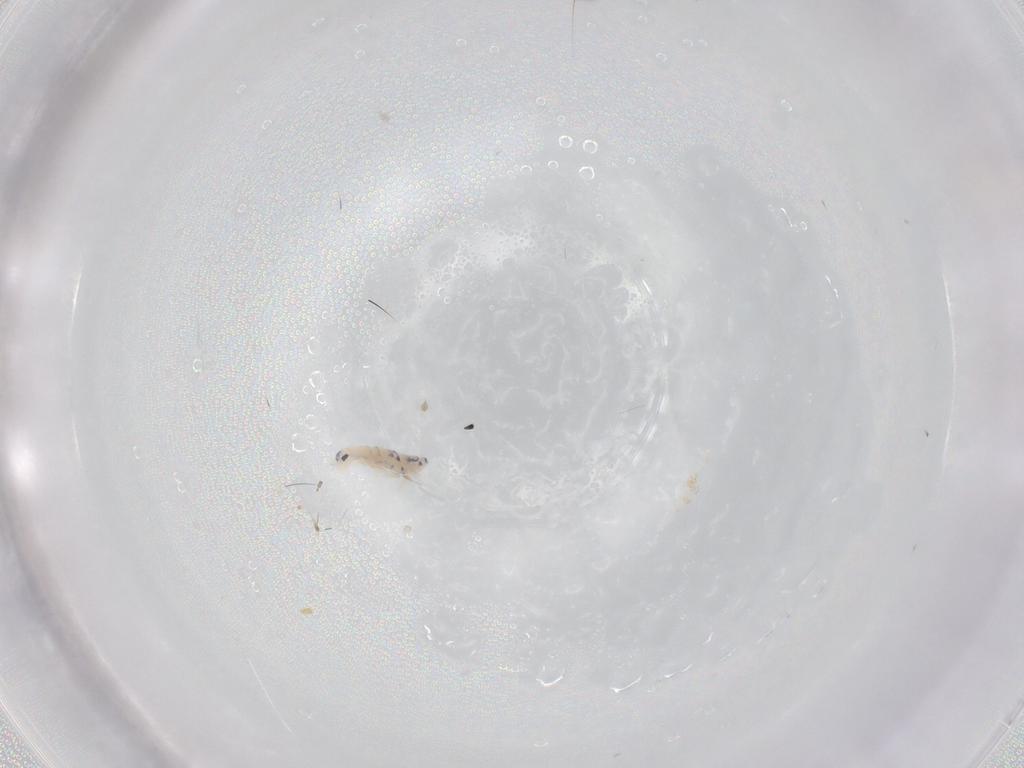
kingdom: Animalia
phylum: Arthropoda
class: Collembola
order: Entomobryomorpha
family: Entomobryidae
